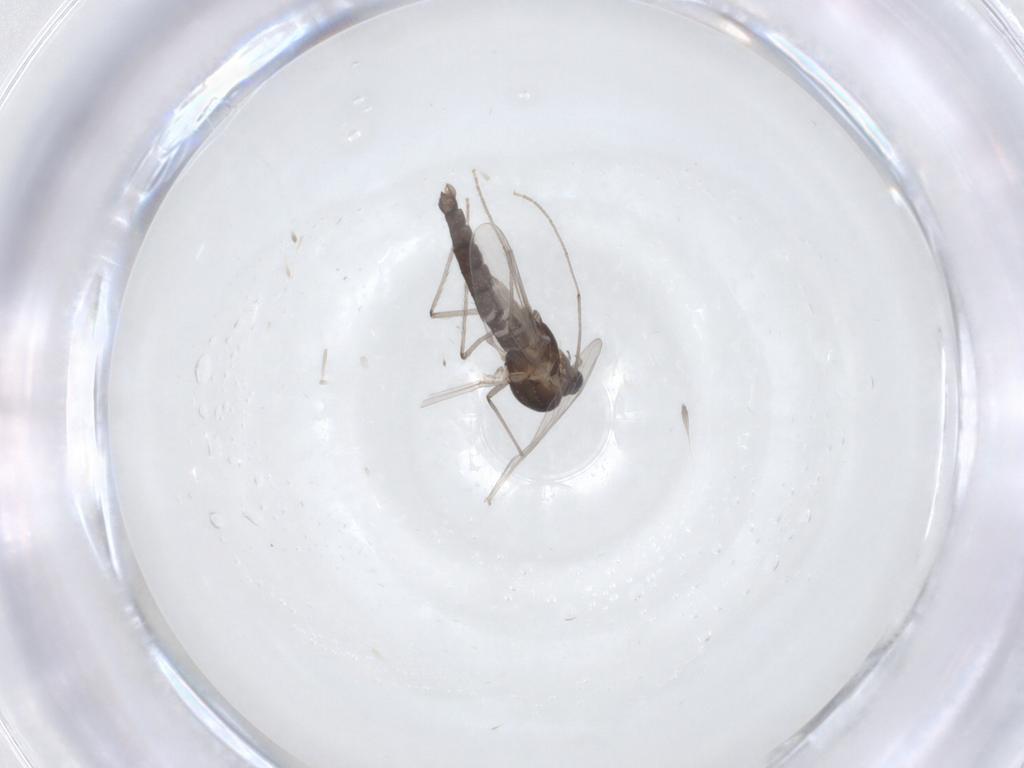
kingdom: Animalia
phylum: Arthropoda
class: Insecta
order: Diptera
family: Chironomidae
